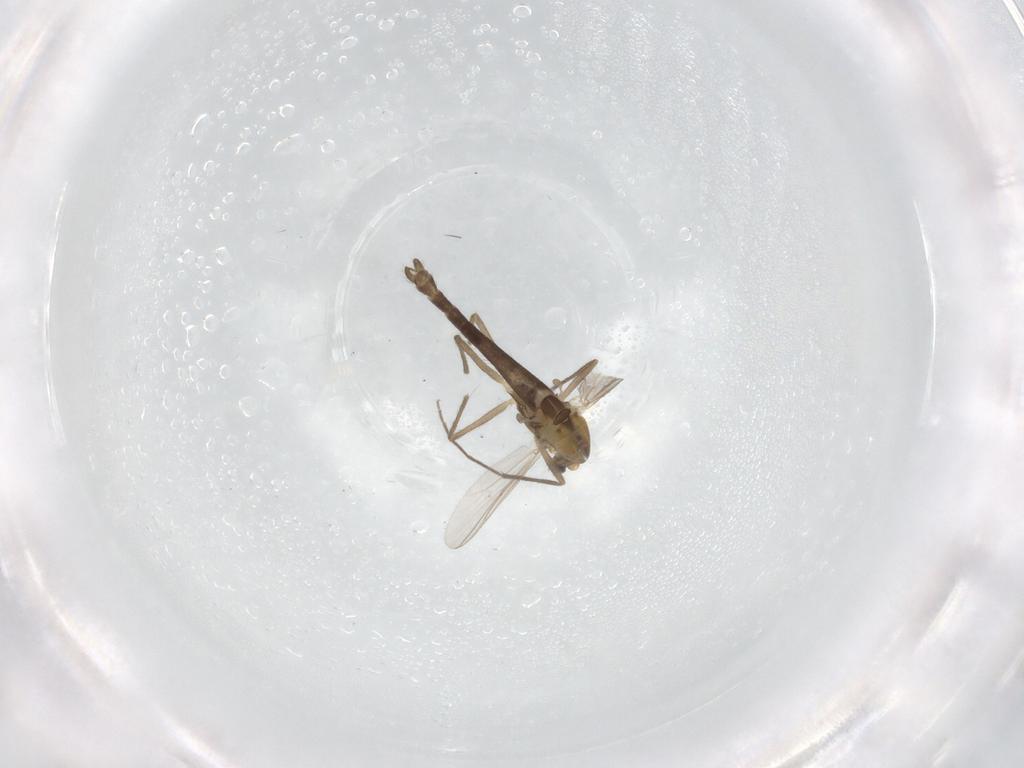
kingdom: Animalia
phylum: Arthropoda
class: Insecta
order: Diptera
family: Chironomidae
